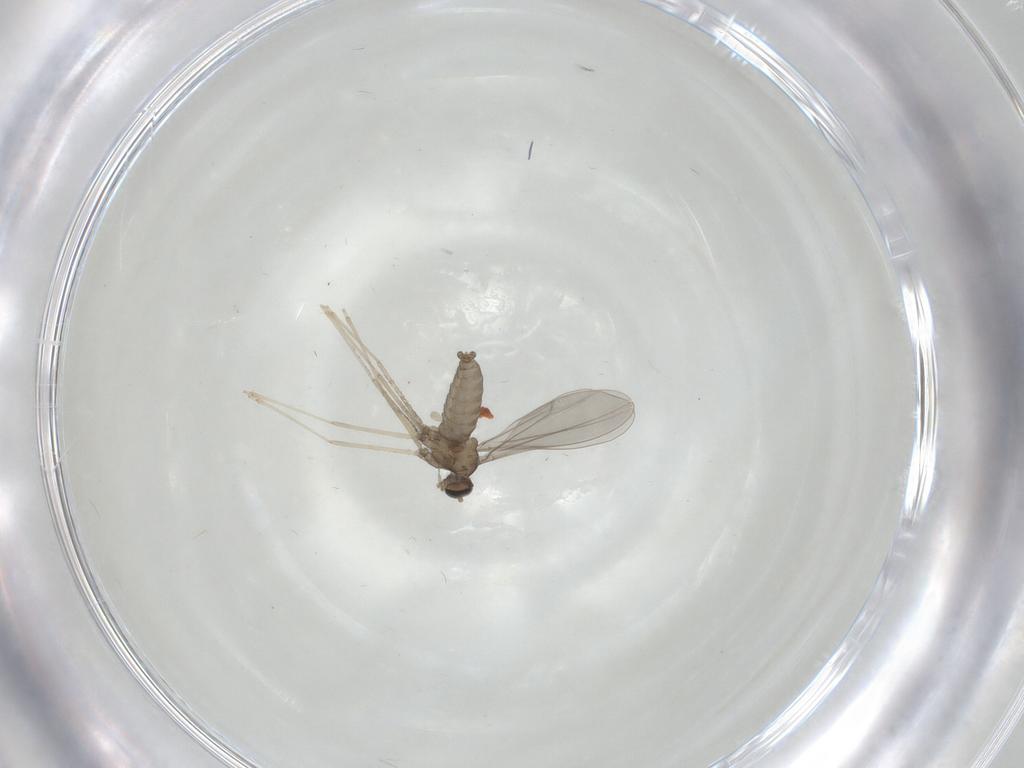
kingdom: Animalia
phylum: Arthropoda
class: Insecta
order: Diptera
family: Cecidomyiidae
